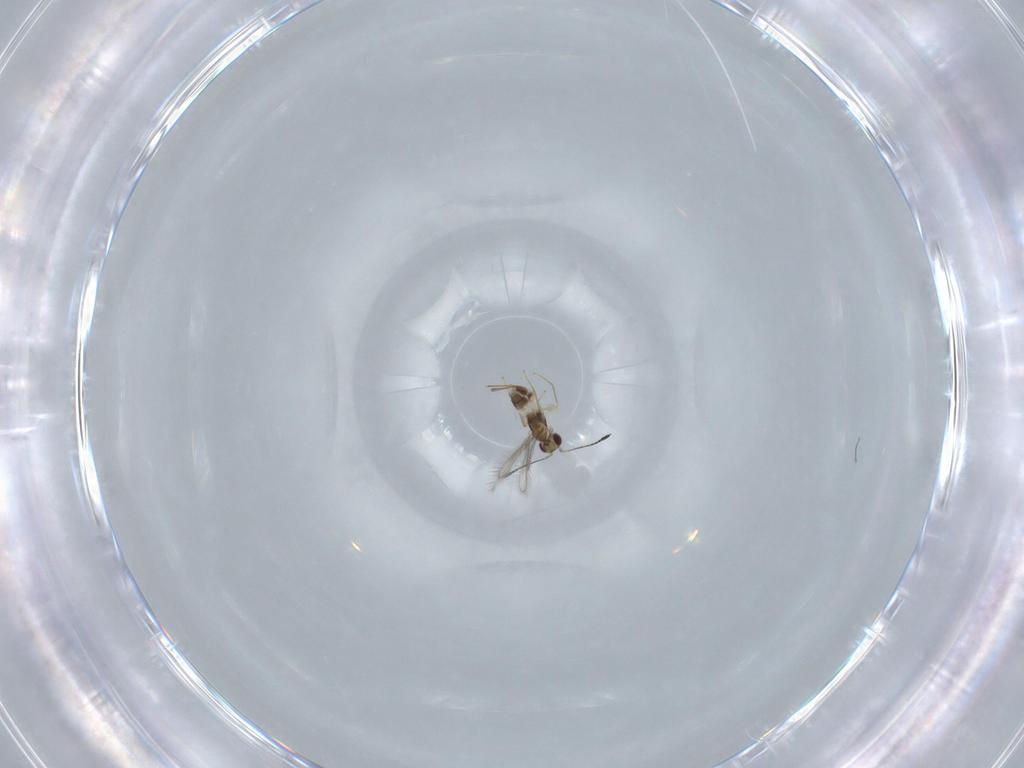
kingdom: Animalia
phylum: Arthropoda
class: Insecta
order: Hymenoptera
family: Mymaridae
